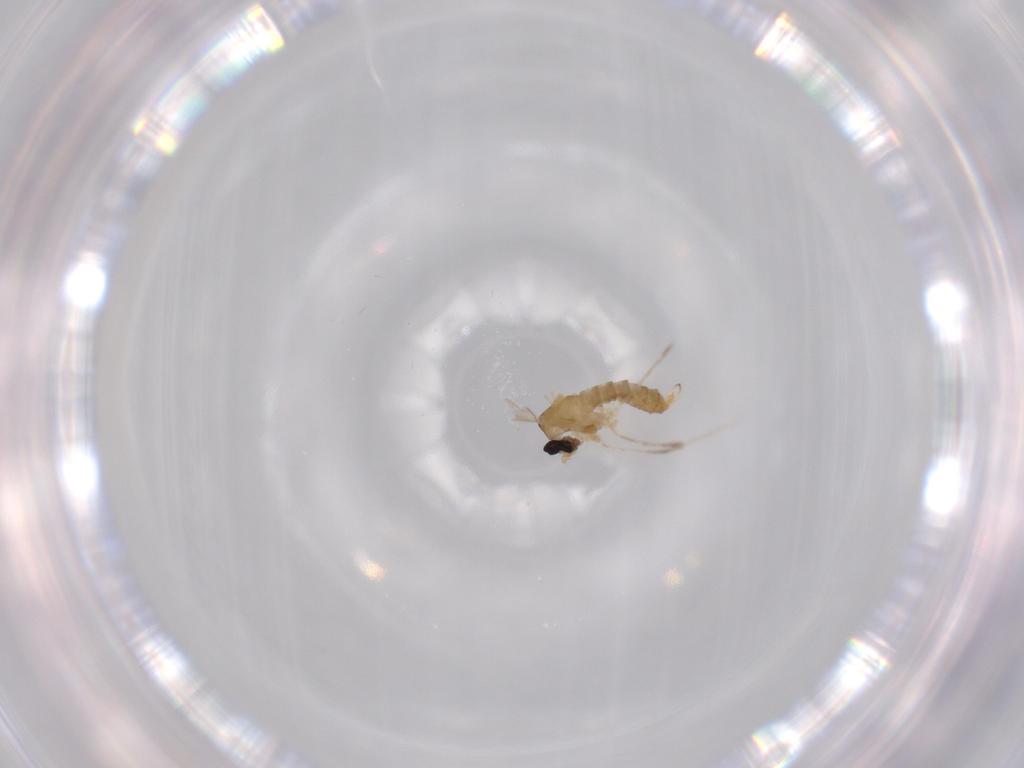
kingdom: Animalia
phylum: Arthropoda
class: Insecta
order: Diptera
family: Cecidomyiidae
